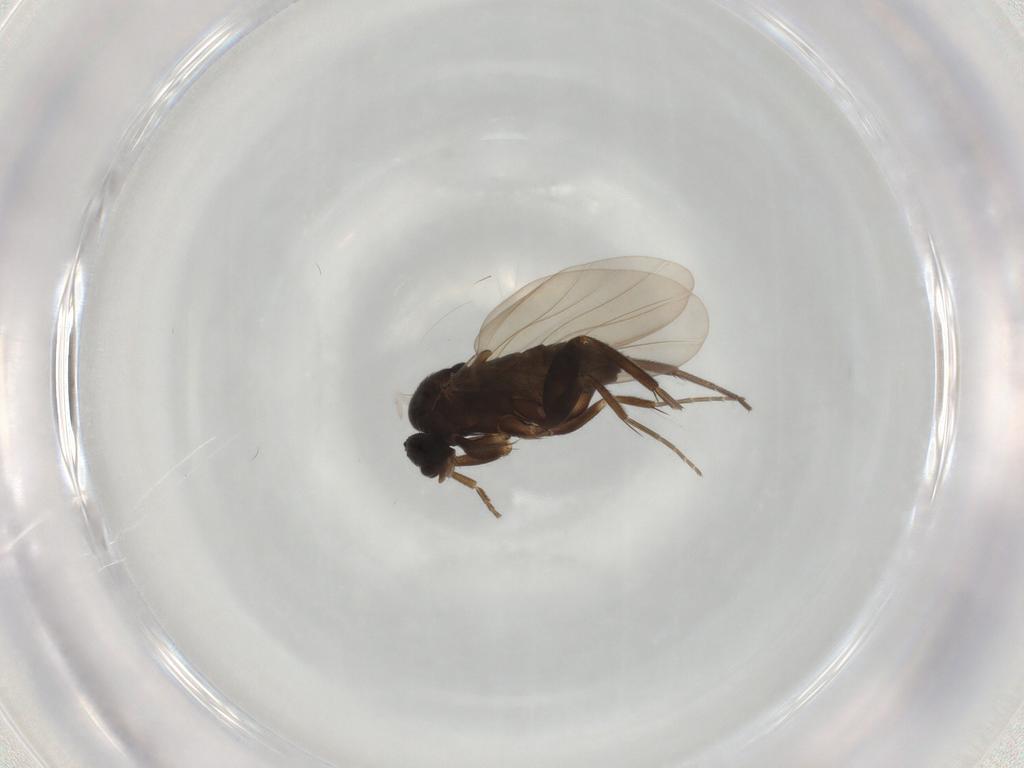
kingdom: Animalia
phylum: Arthropoda
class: Insecta
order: Diptera
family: Phoridae
